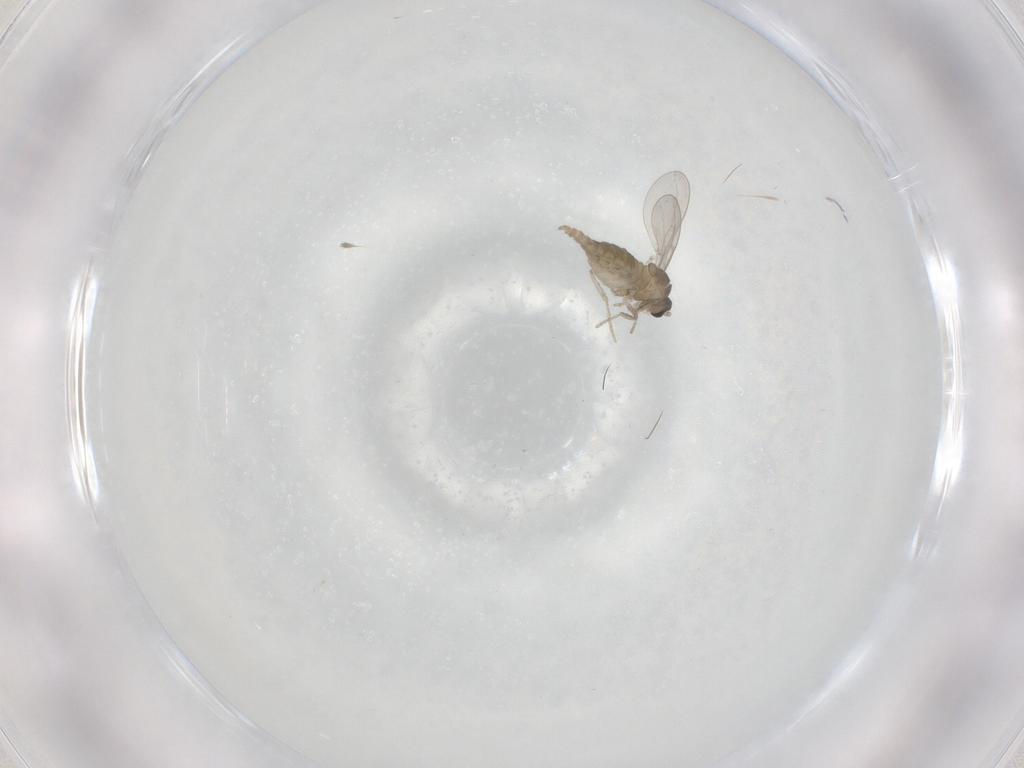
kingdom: Animalia
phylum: Arthropoda
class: Insecta
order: Diptera
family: Cecidomyiidae
